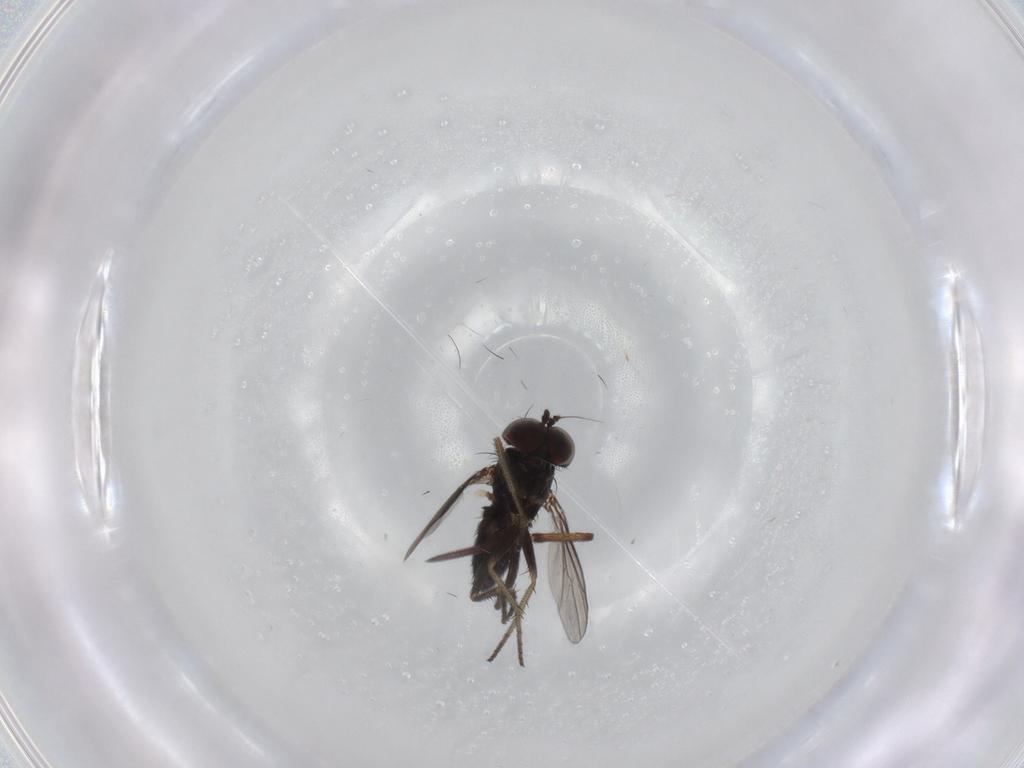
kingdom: Animalia
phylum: Arthropoda
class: Insecta
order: Diptera
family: Dolichopodidae
